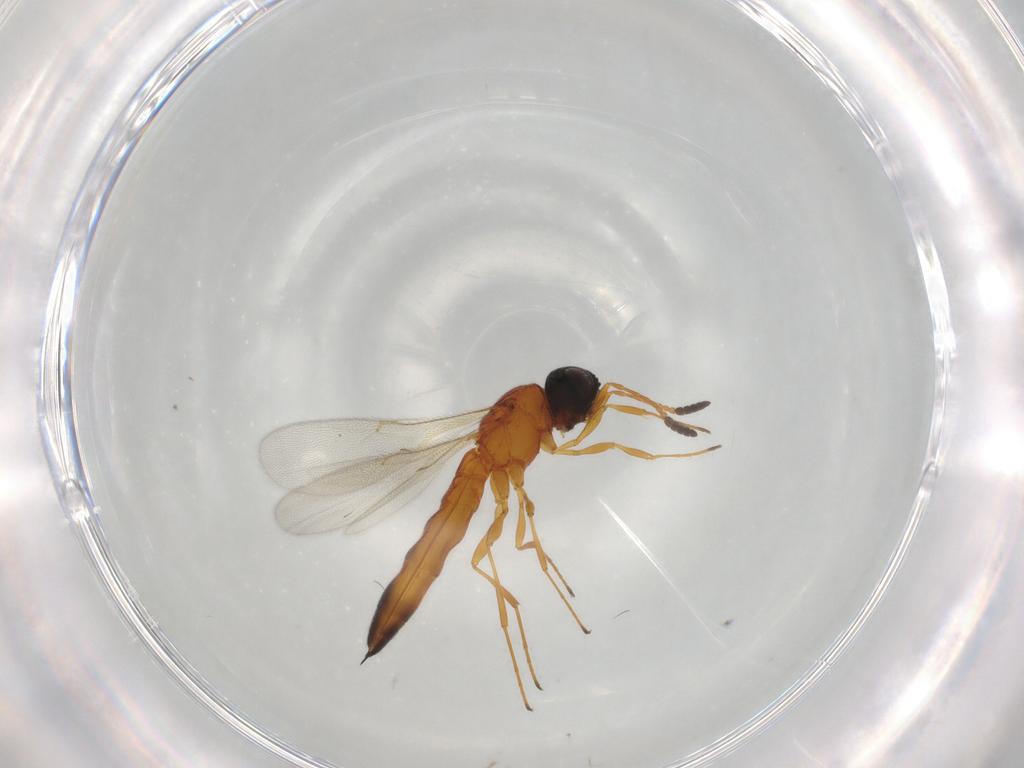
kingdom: Animalia
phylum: Arthropoda
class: Insecta
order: Hymenoptera
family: Scelionidae
